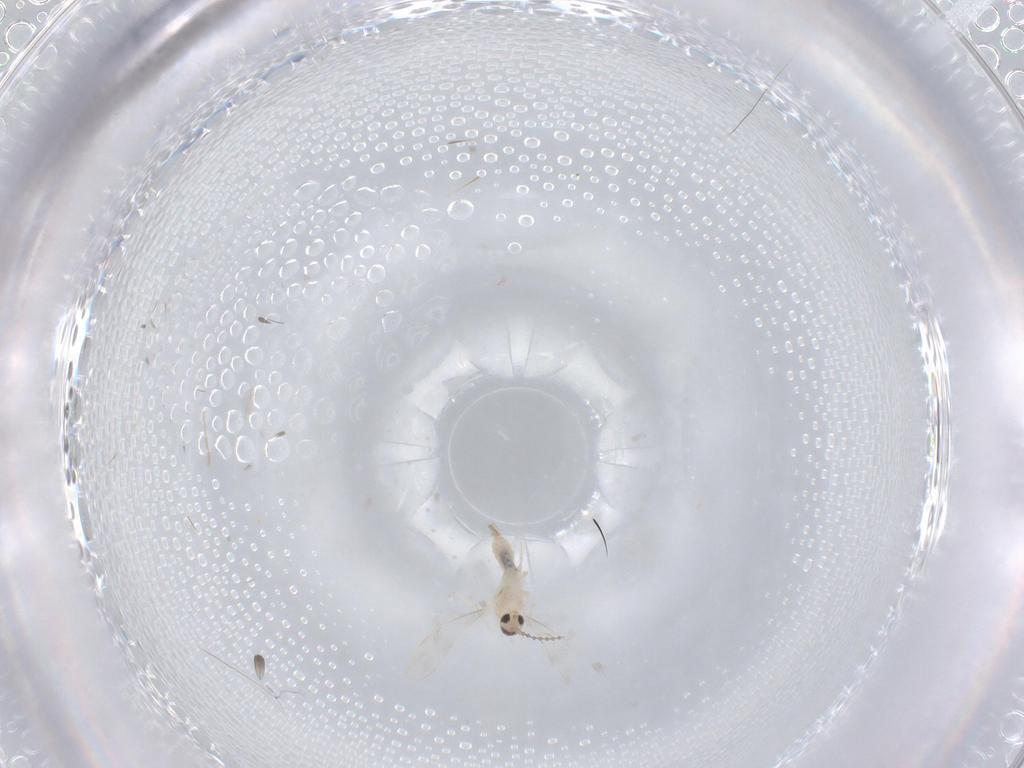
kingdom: Animalia
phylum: Arthropoda
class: Insecta
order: Diptera
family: Chironomidae
